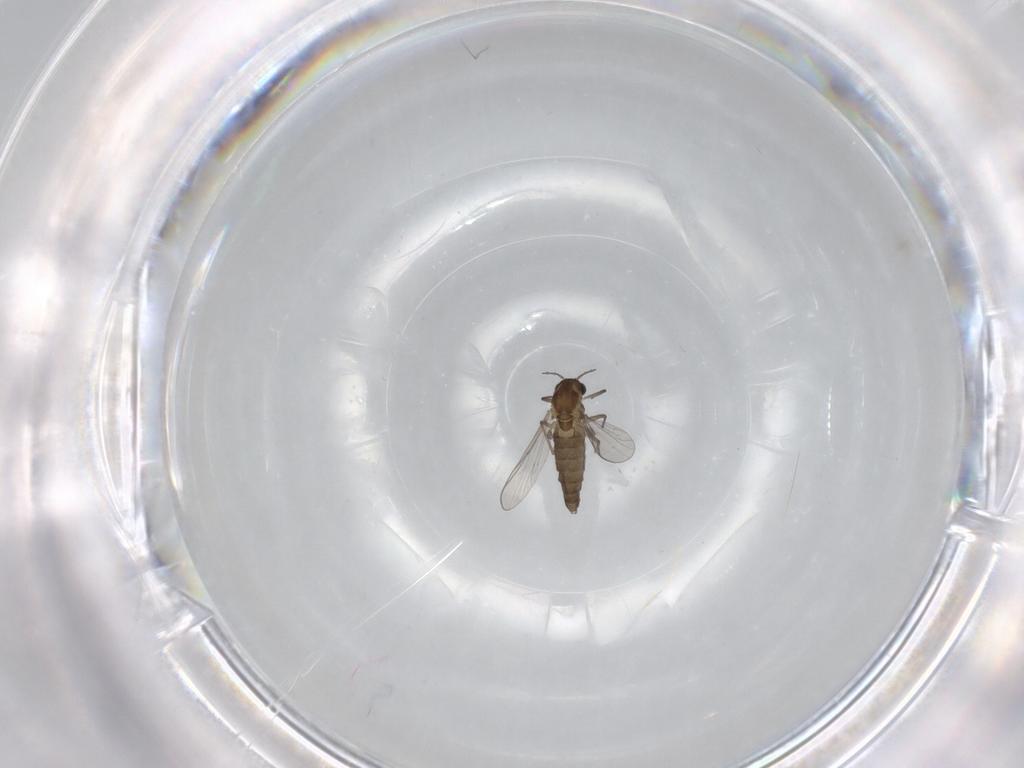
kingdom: Animalia
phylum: Arthropoda
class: Insecta
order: Diptera
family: Chironomidae
